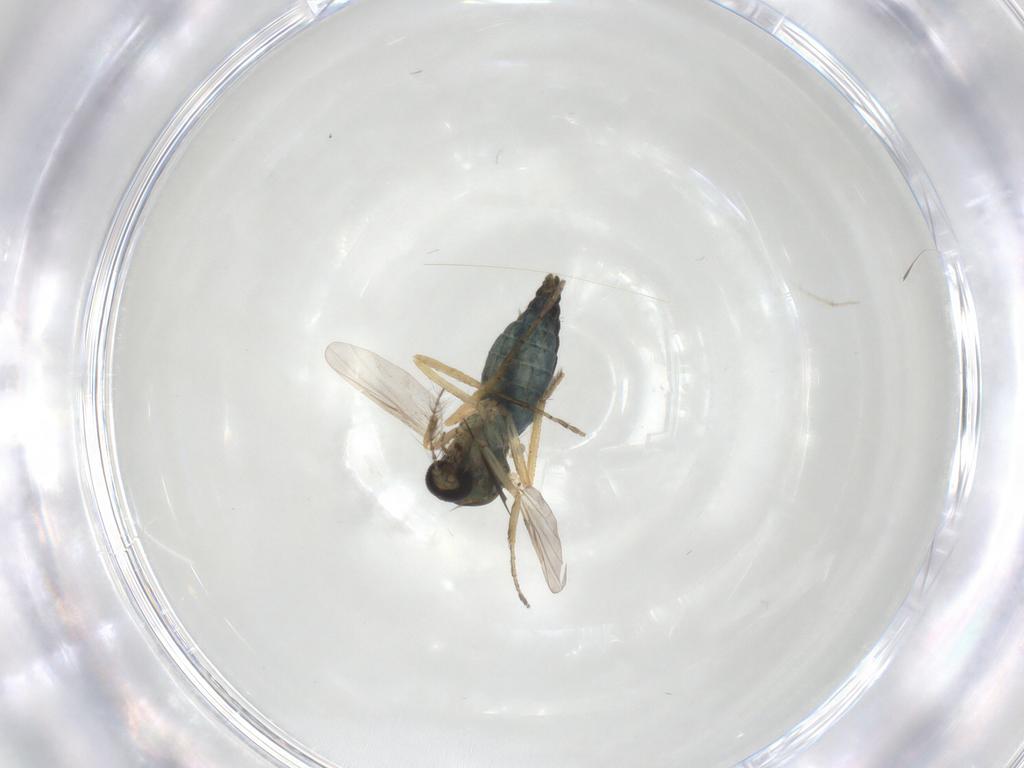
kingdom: Animalia
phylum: Arthropoda
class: Insecta
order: Diptera
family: Ceratopogonidae
